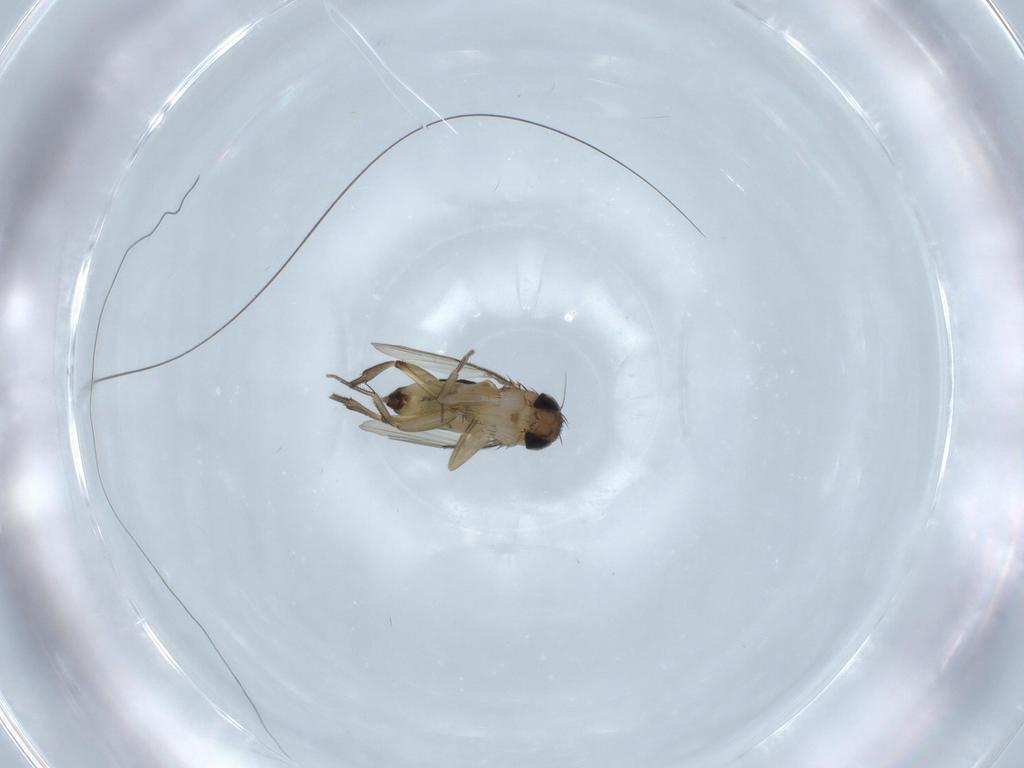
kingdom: Animalia
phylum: Arthropoda
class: Insecta
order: Diptera
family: Phoridae
